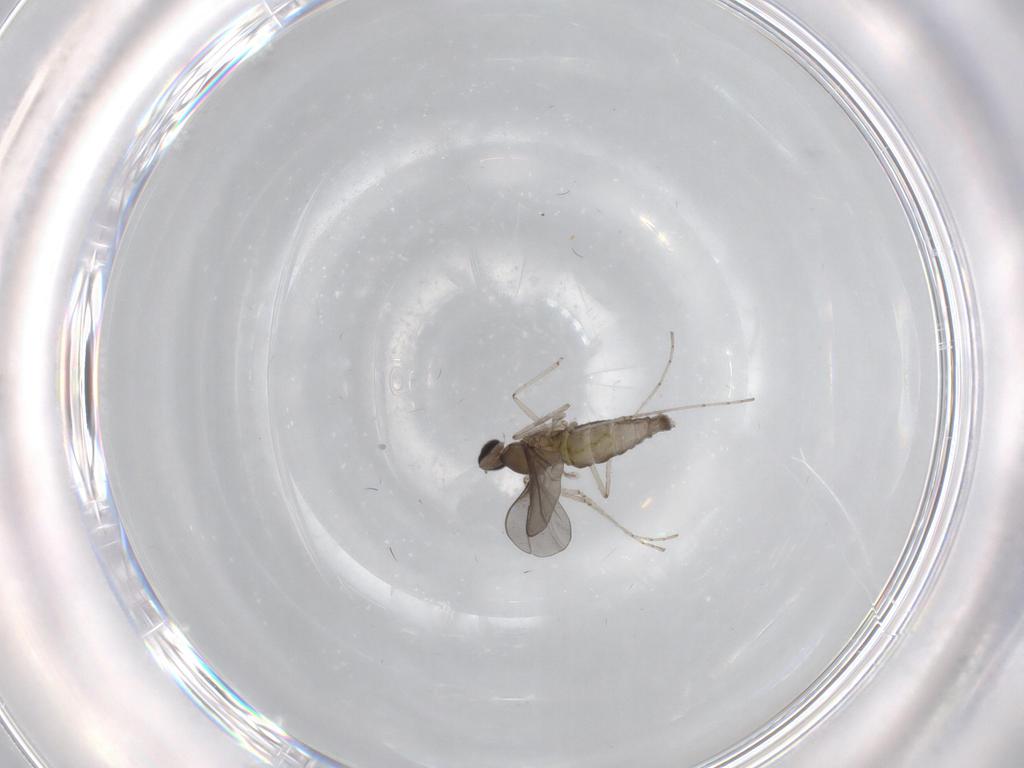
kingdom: Animalia
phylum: Arthropoda
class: Insecta
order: Diptera
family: Cecidomyiidae
